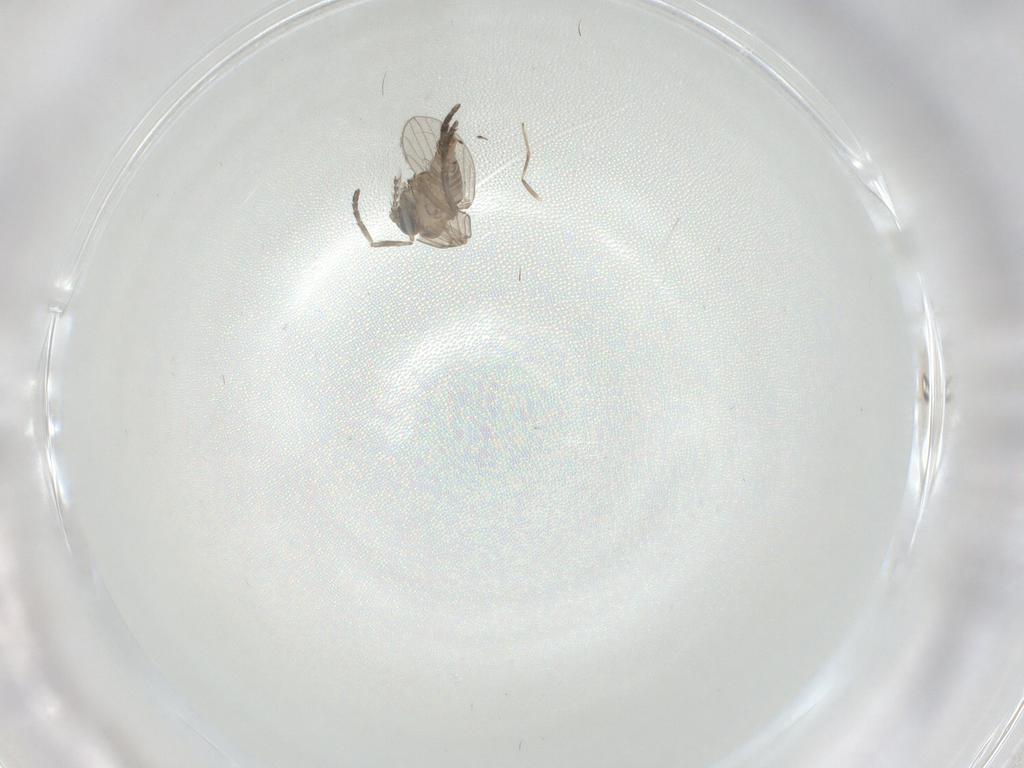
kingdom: Animalia
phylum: Arthropoda
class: Insecta
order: Diptera
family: Chironomidae
